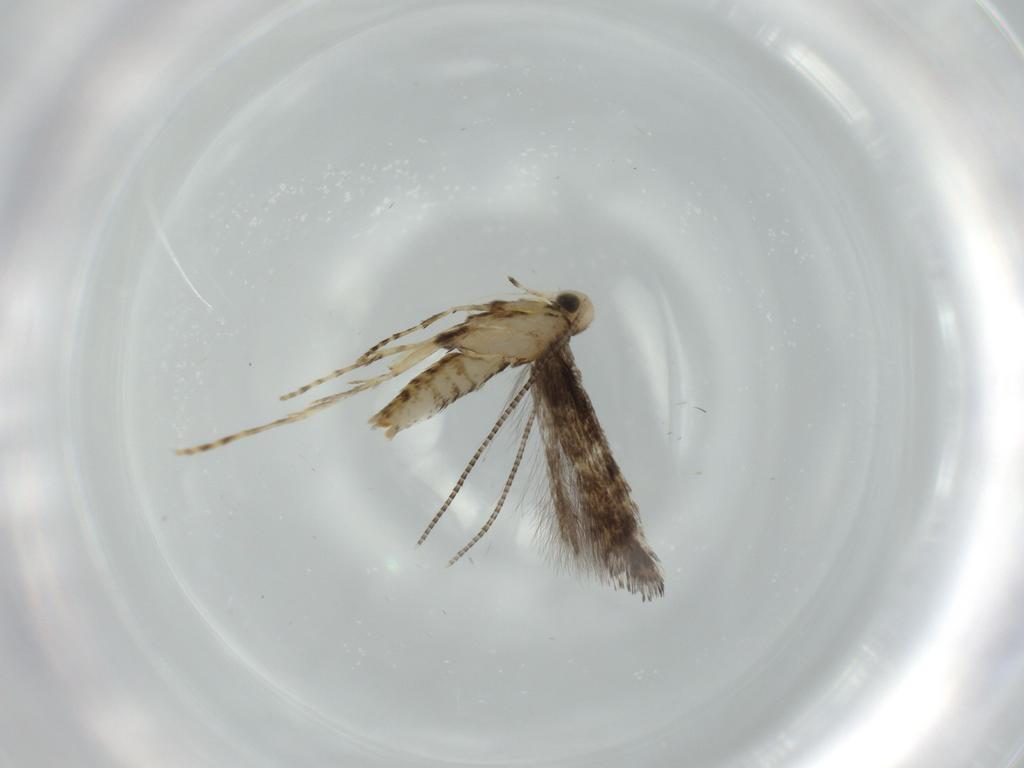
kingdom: Animalia
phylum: Arthropoda
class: Insecta
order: Lepidoptera
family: Gracillariidae
